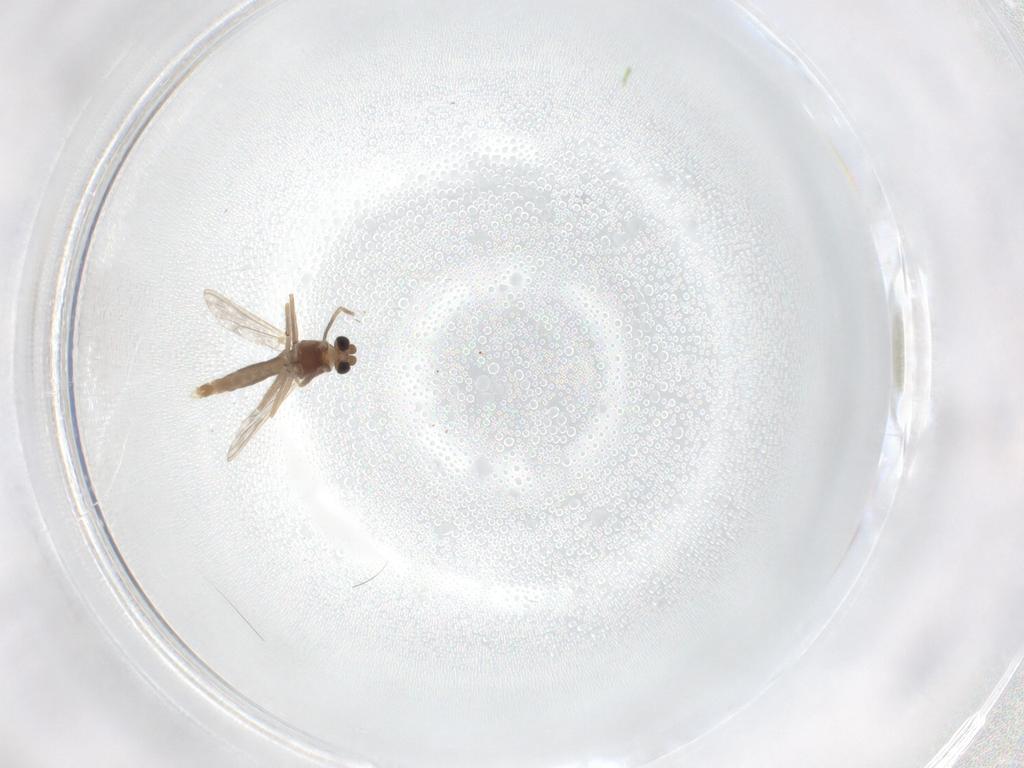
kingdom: Animalia
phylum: Arthropoda
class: Insecta
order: Diptera
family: Chironomidae
